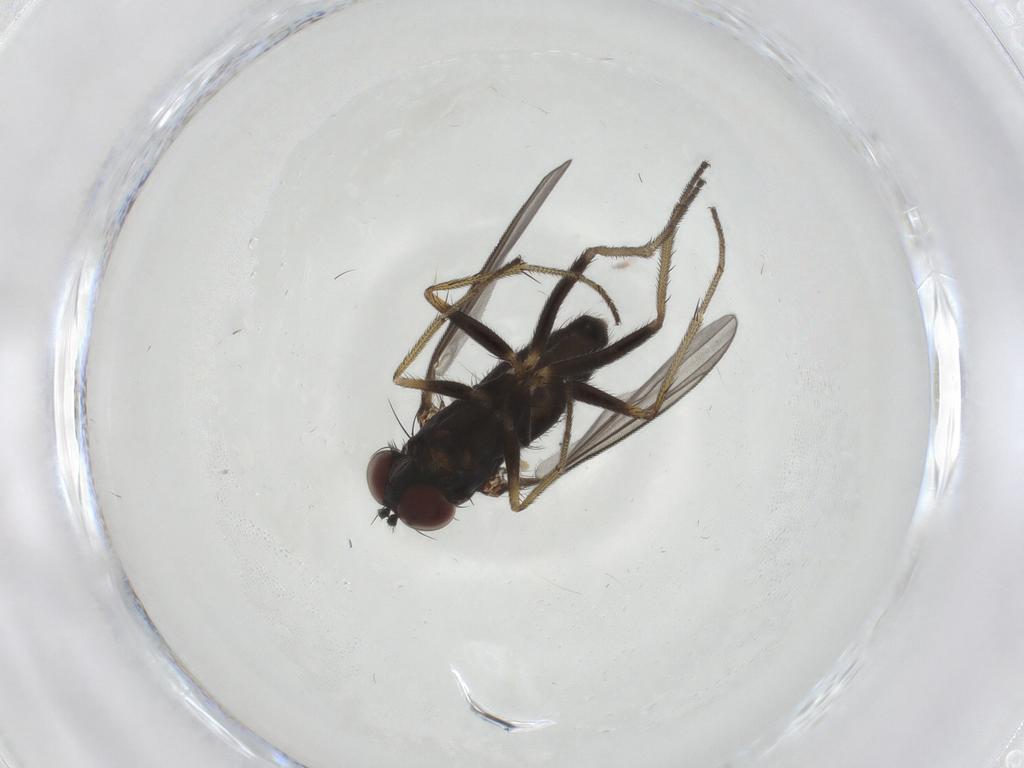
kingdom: Animalia
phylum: Arthropoda
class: Insecta
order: Diptera
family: Dolichopodidae
